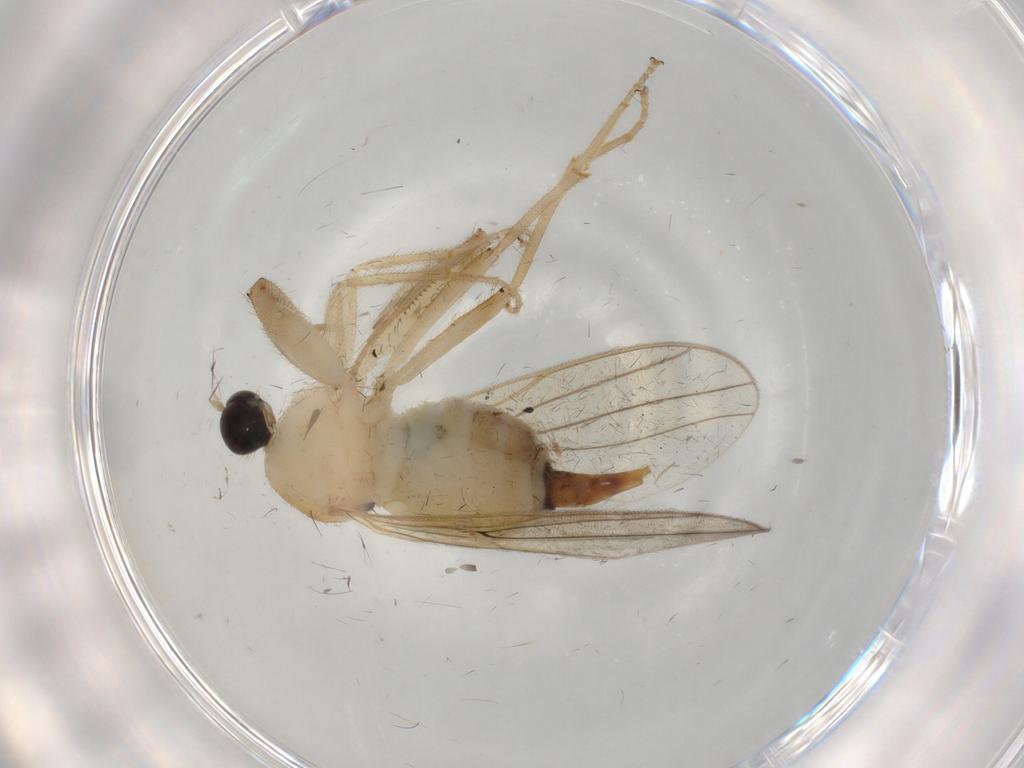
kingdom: Animalia
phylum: Arthropoda
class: Insecta
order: Diptera
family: Hybotidae
